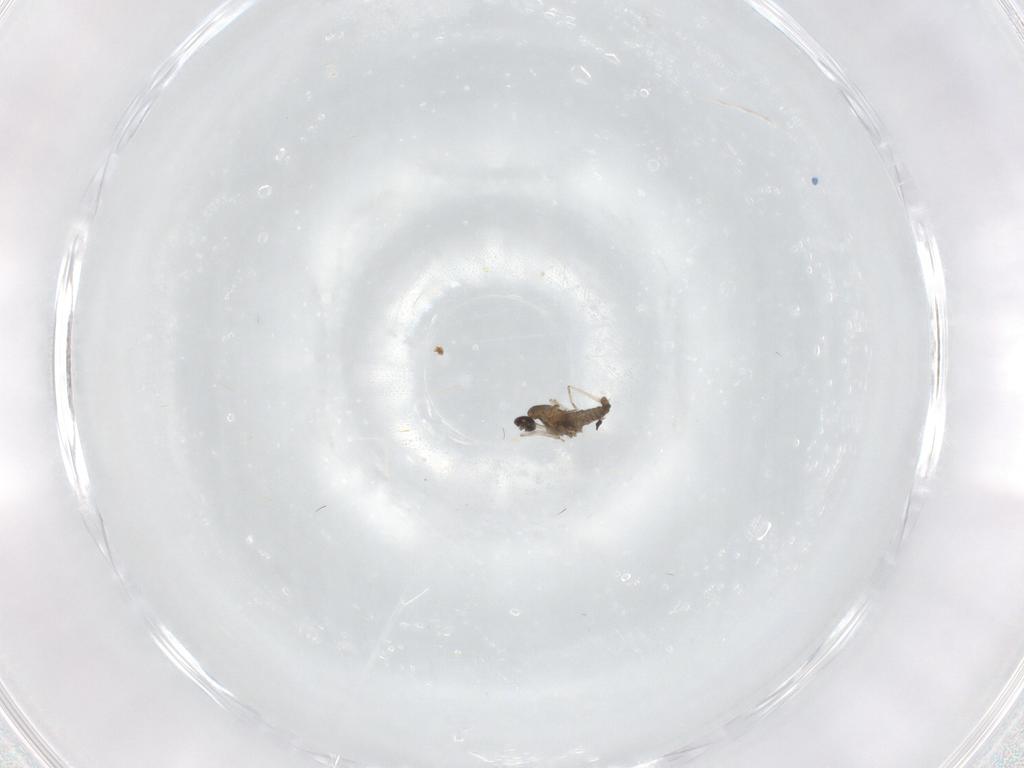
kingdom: Animalia
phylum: Arthropoda
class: Insecta
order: Diptera
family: Cecidomyiidae
